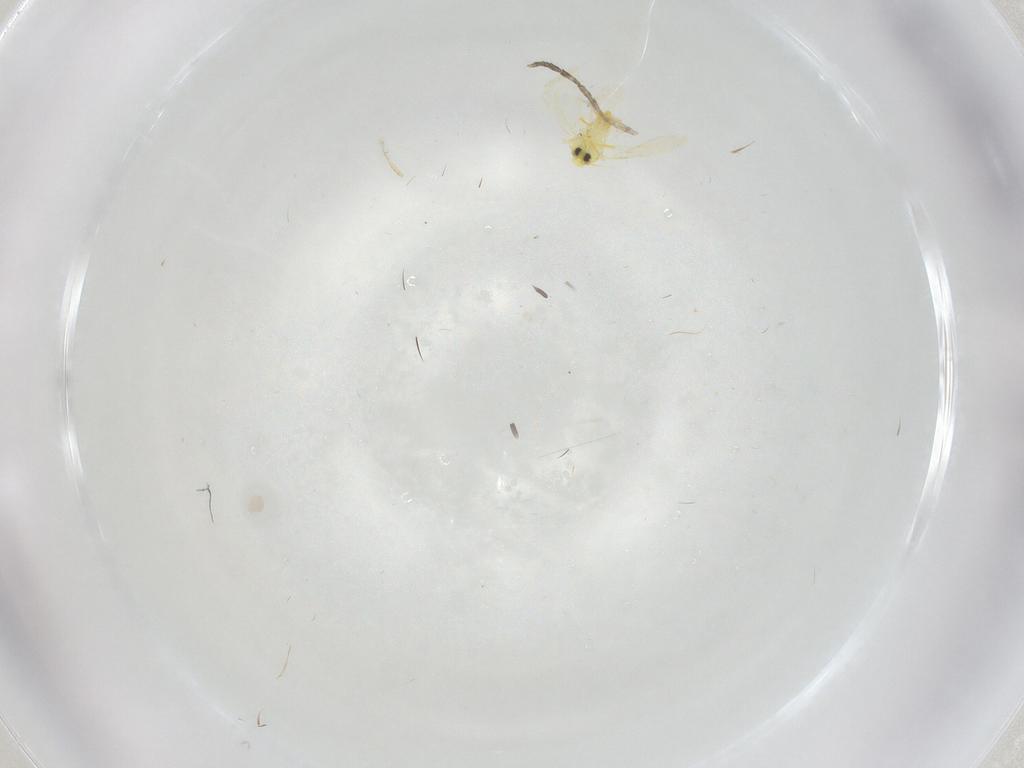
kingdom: Animalia
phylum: Arthropoda
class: Insecta
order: Hemiptera
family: Aleyrodidae
